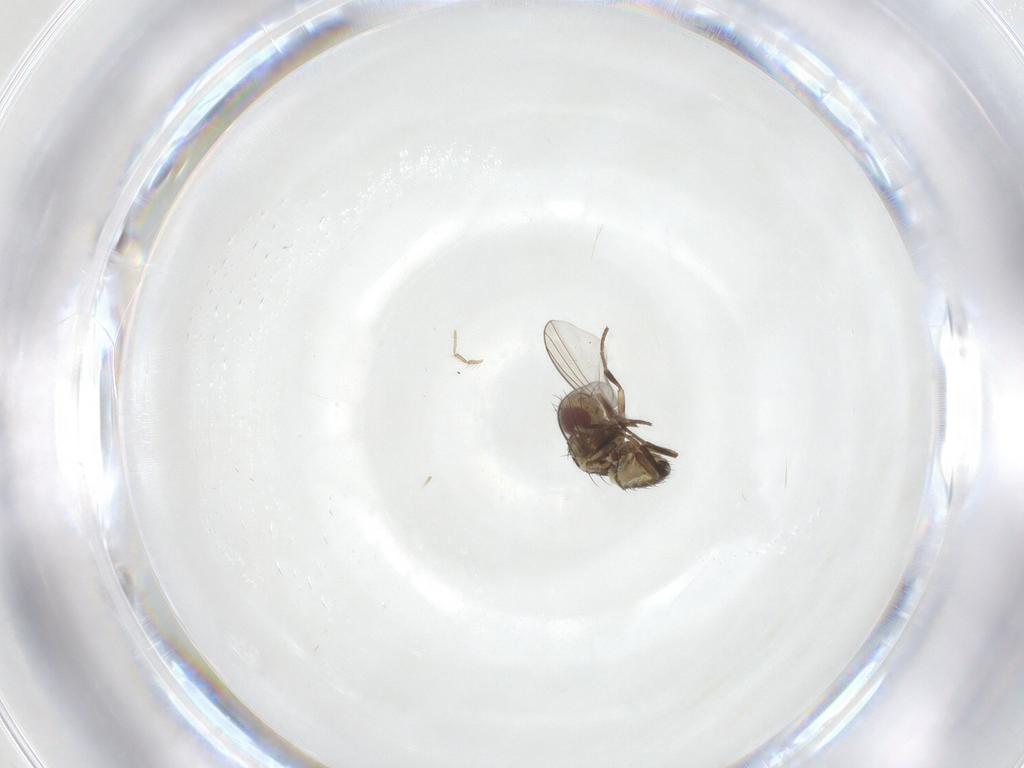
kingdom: Animalia
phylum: Arthropoda
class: Insecta
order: Diptera
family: Agromyzidae
